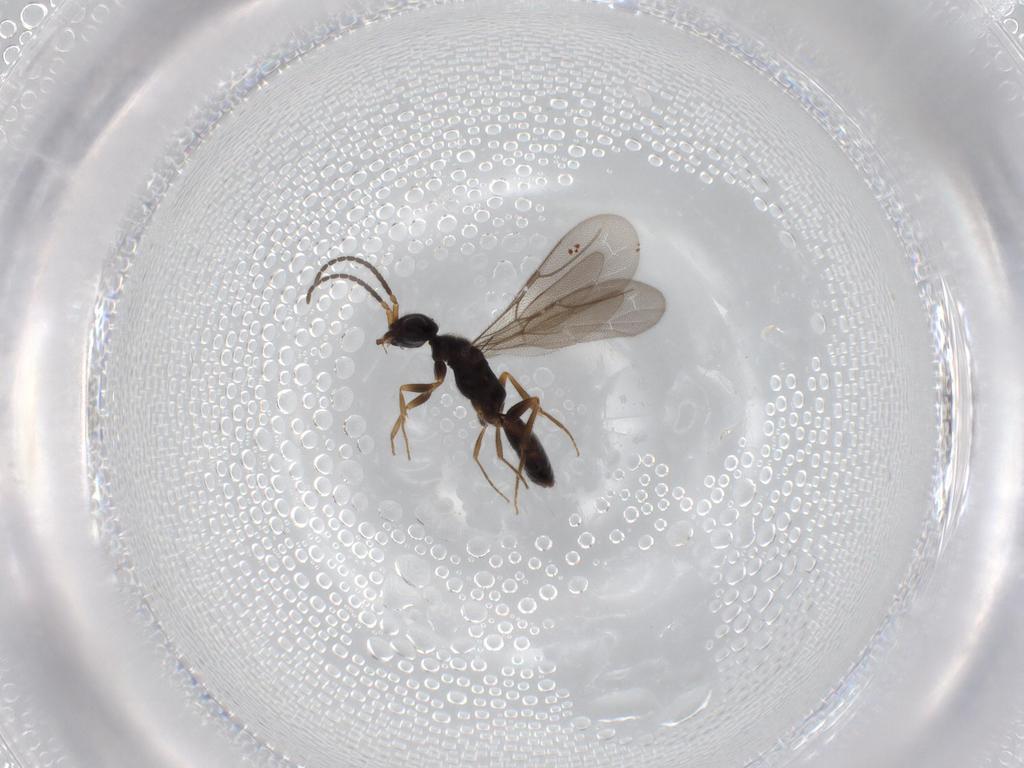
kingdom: Animalia
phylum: Arthropoda
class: Insecta
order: Hymenoptera
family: Bethylidae
